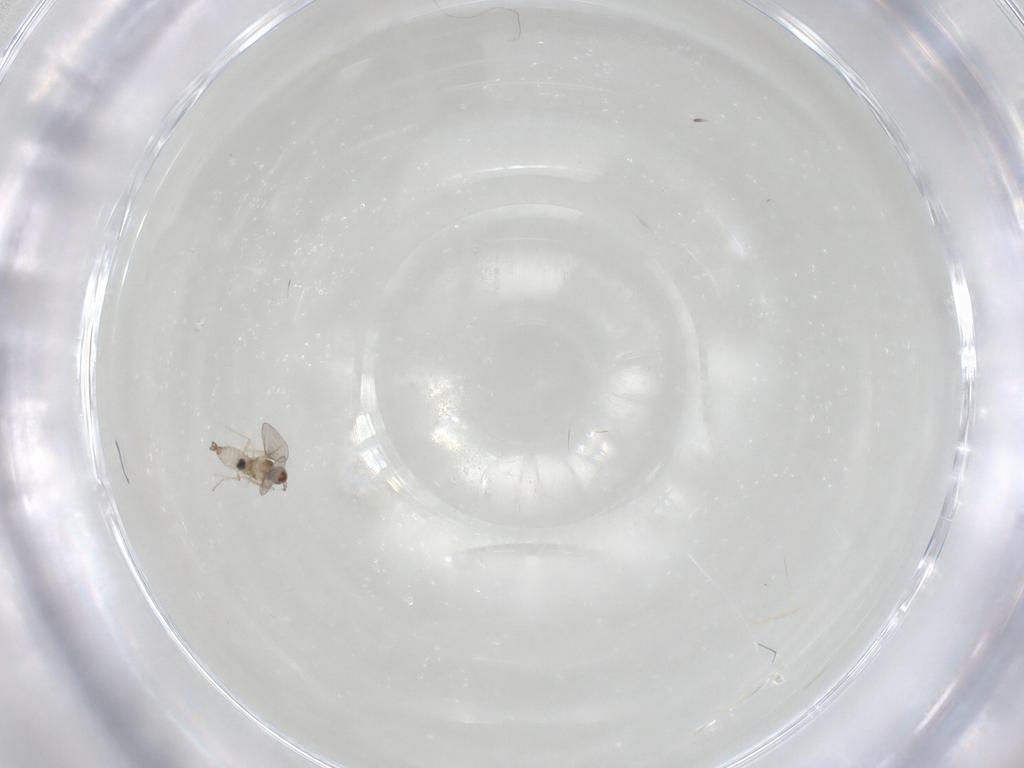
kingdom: Animalia
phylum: Arthropoda
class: Insecta
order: Diptera
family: Cecidomyiidae
